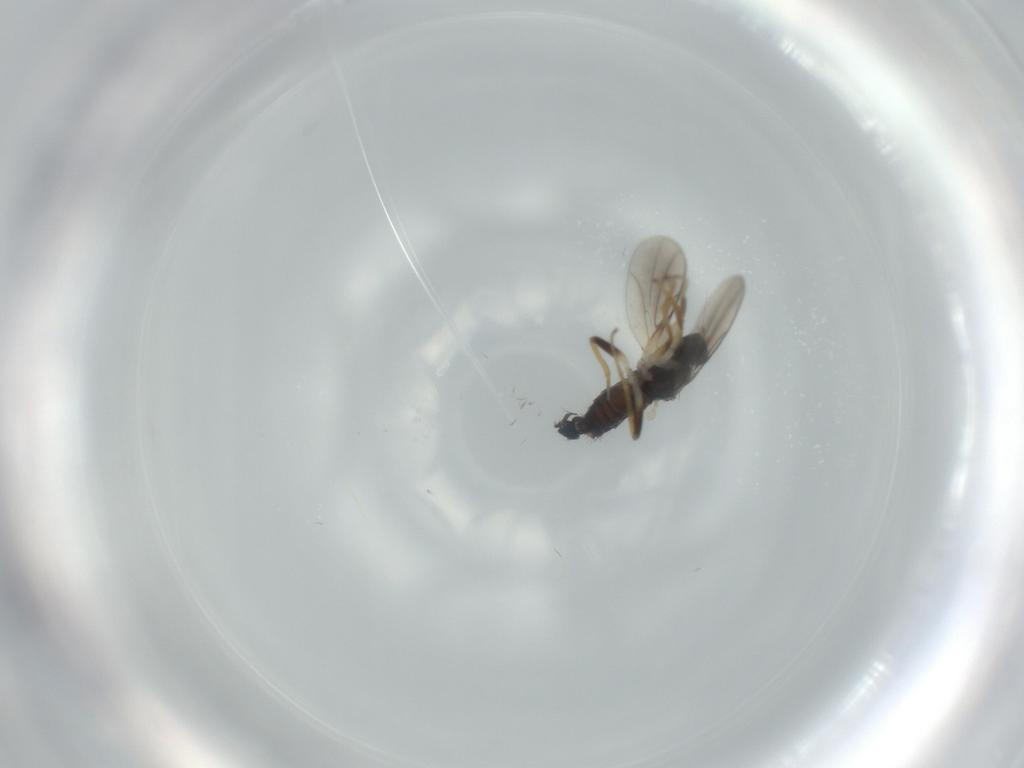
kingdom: Animalia
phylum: Arthropoda
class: Insecta
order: Diptera
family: Hybotidae
